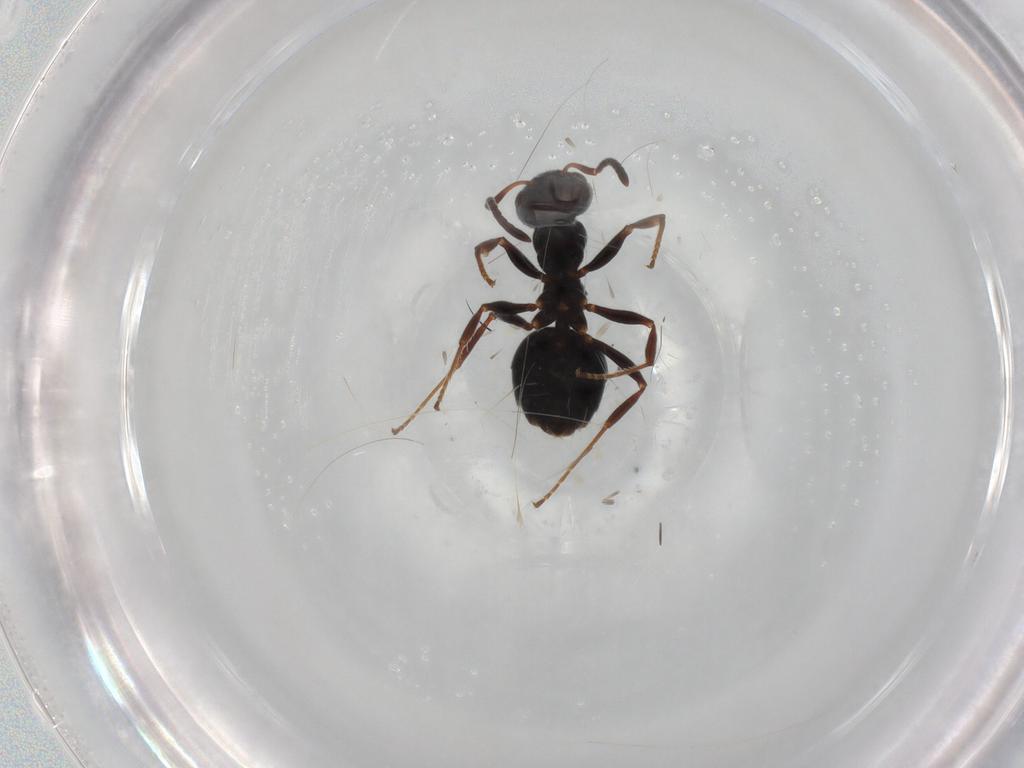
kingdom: Animalia
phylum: Arthropoda
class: Insecta
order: Hymenoptera
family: Formicidae
